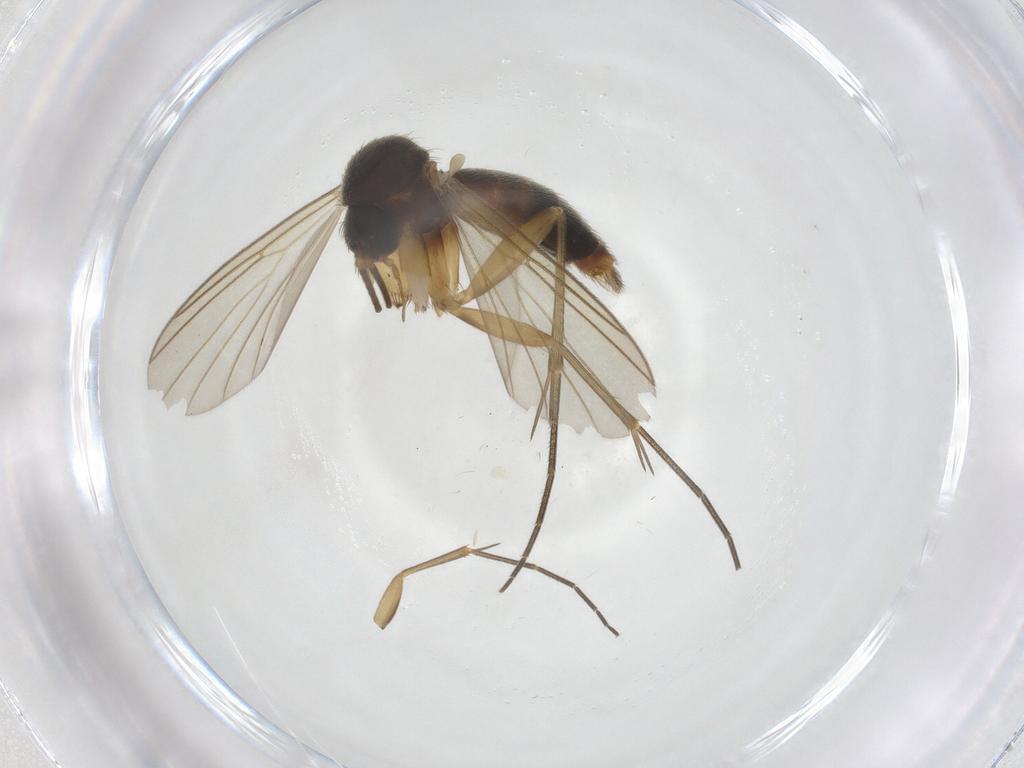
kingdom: Animalia
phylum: Arthropoda
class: Insecta
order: Diptera
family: Mycetophilidae
